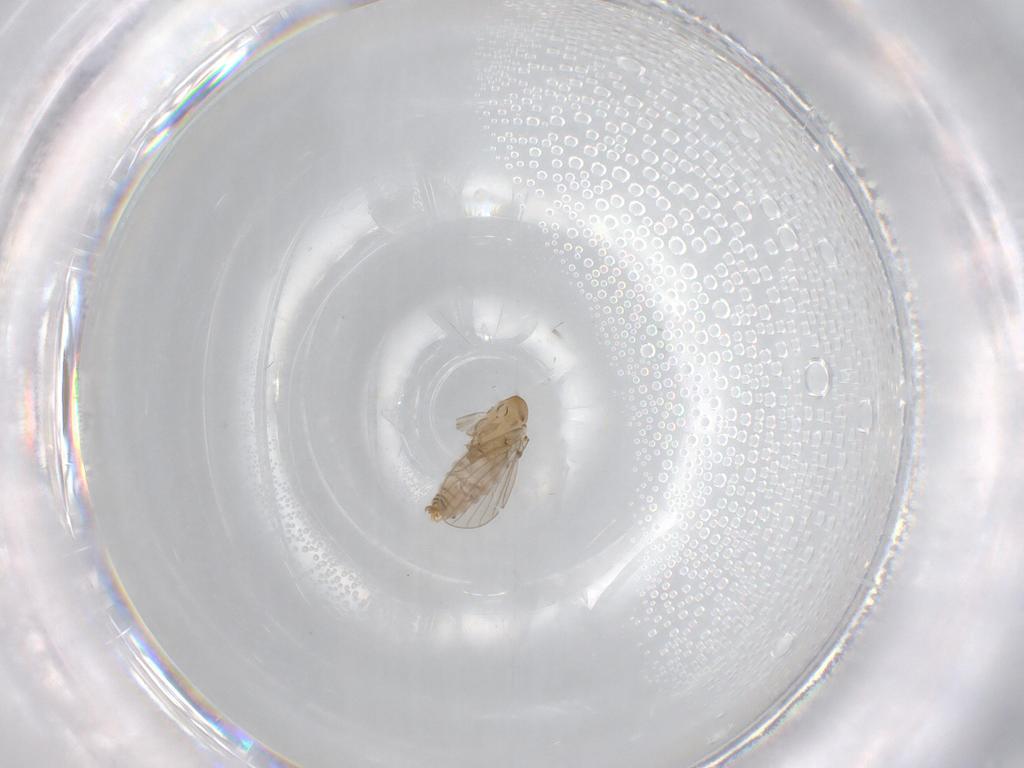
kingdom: Animalia
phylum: Arthropoda
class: Insecta
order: Diptera
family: Psychodidae
